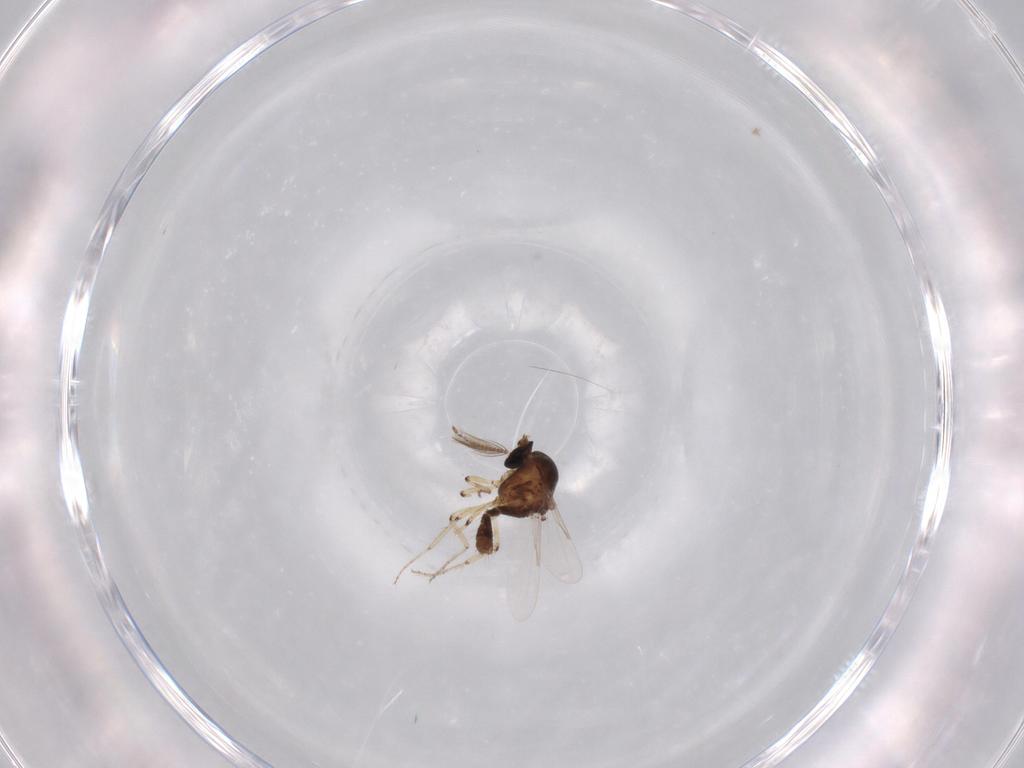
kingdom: Animalia
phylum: Arthropoda
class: Insecta
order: Diptera
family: Ceratopogonidae
